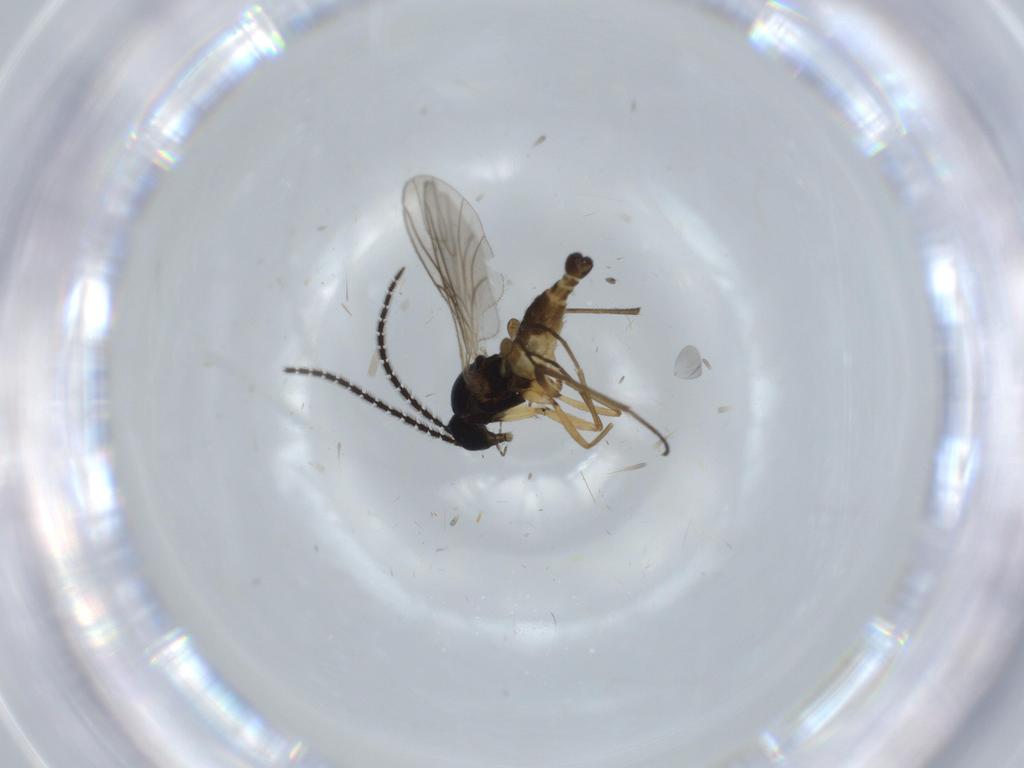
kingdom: Animalia
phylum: Arthropoda
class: Insecta
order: Diptera
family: Sciaridae
